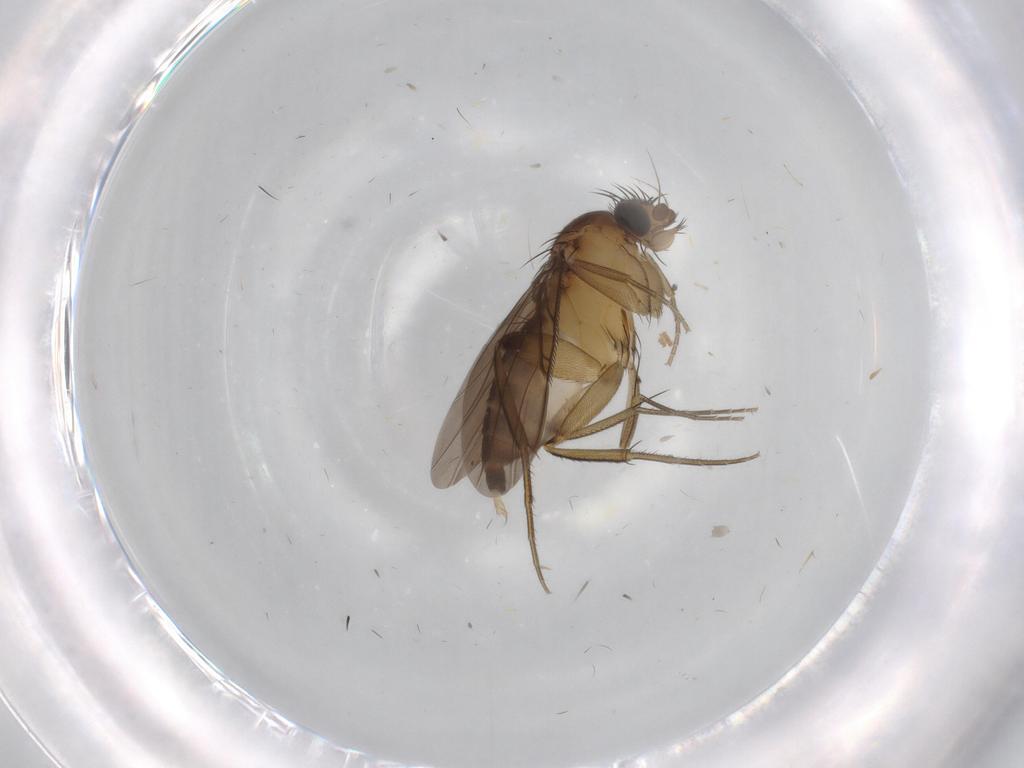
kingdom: Animalia
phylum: Arthropoda
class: Insecta
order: Diptera
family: Phoridae
